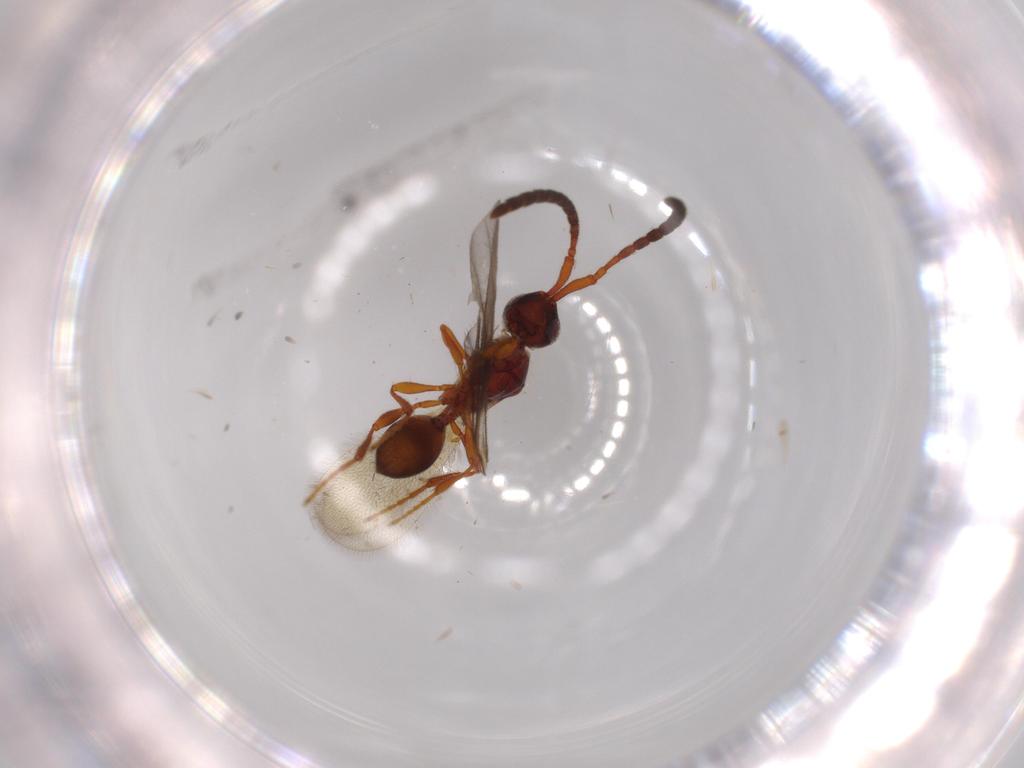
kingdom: Animalia
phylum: Arthropoda
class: Insecta
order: Hymenoptera
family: Diapriidae
